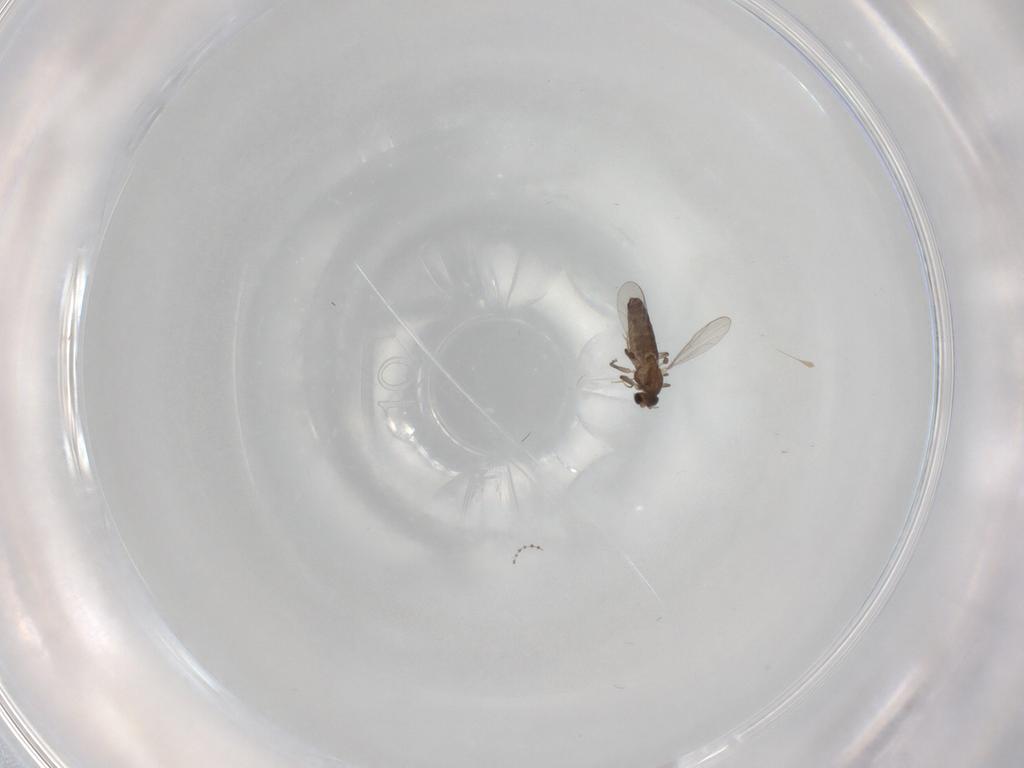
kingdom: Animalia
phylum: Arthropoda
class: Insecta
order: Diptera
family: Chironomidae
